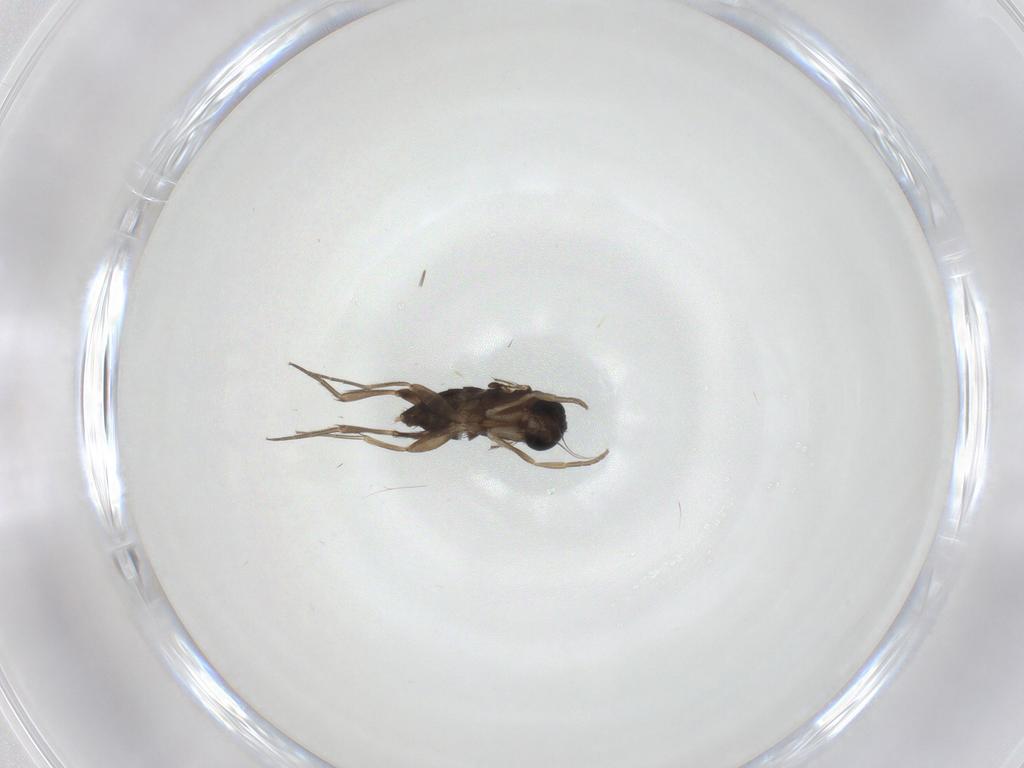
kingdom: Animalia
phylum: Arthropoda
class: Insecta
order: Diptera
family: Phoridae
